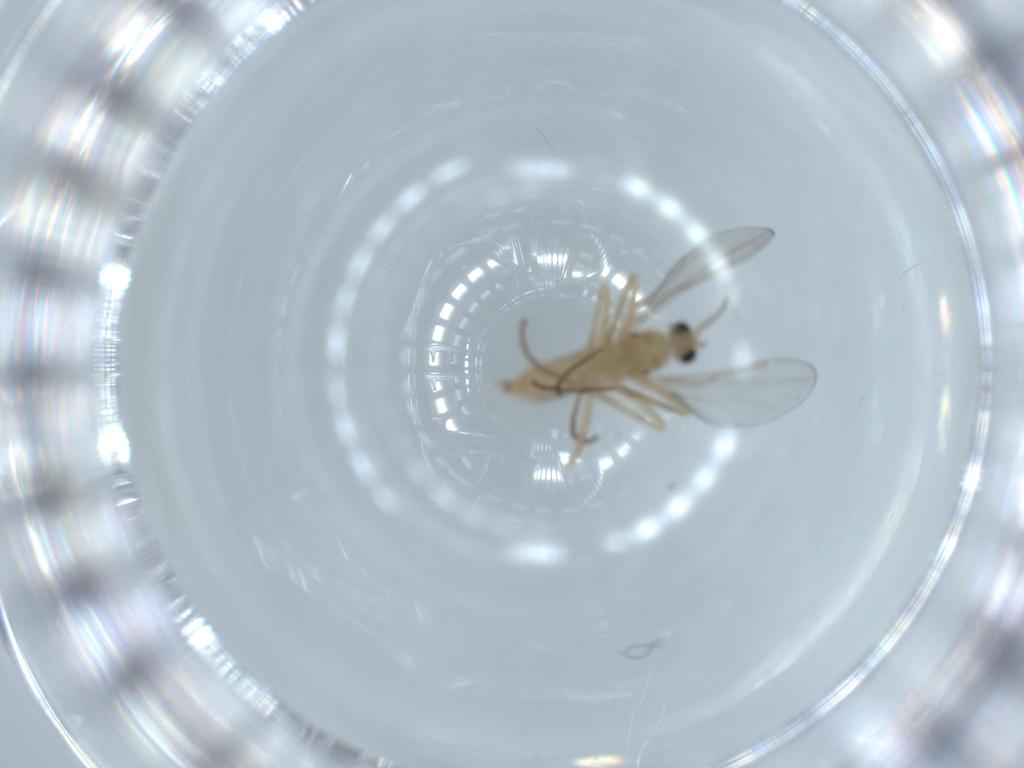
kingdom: Animalia
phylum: Arthropoda
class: Insecta
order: Diptera
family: Cecidomyiidae
